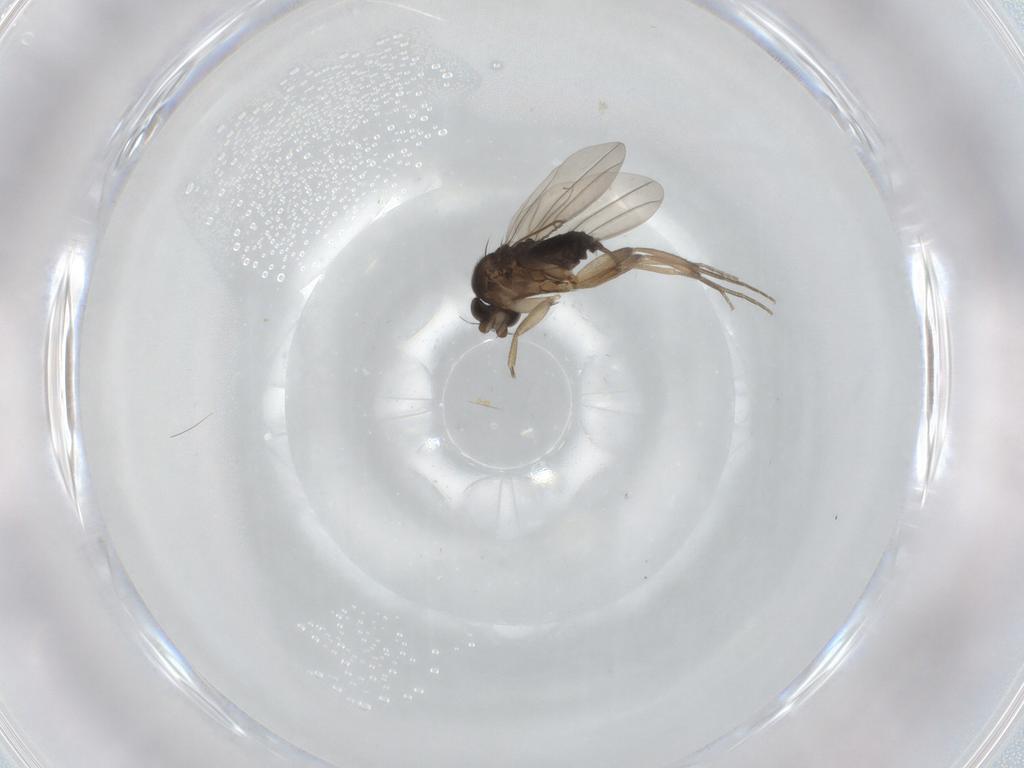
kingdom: Animalia
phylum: Arthropoda
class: Insecta
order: Diptera
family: Phoridae
